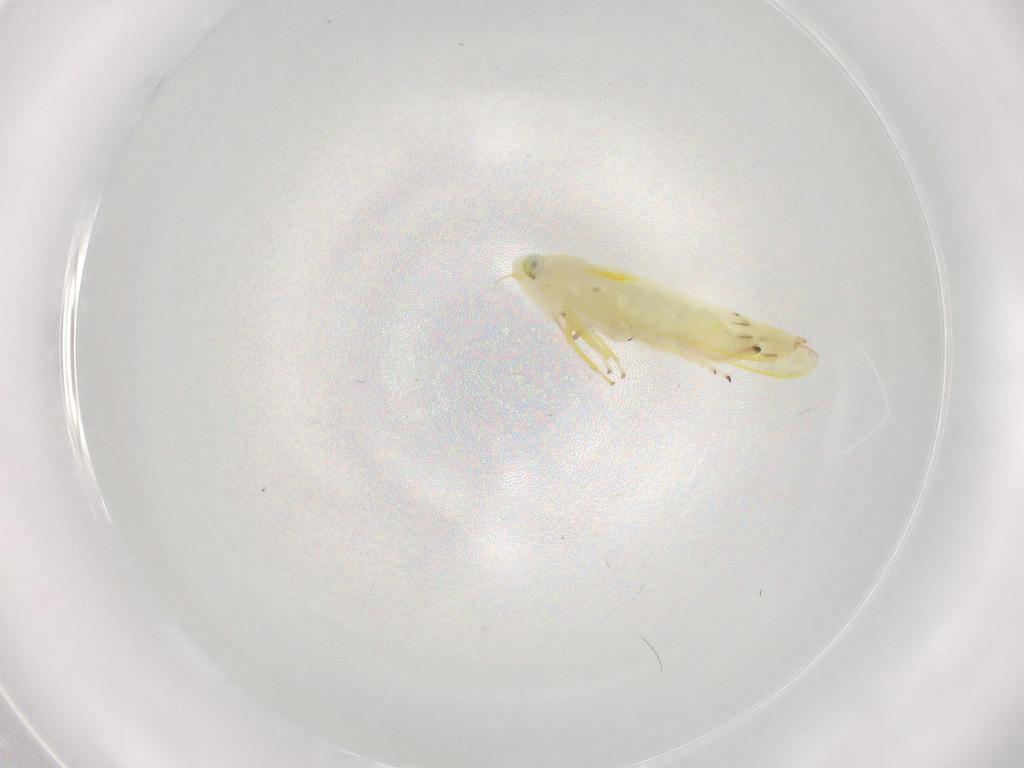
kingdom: Animalia
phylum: Arthropoda
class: Insecta
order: Hemiptera
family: Cicadellidae
